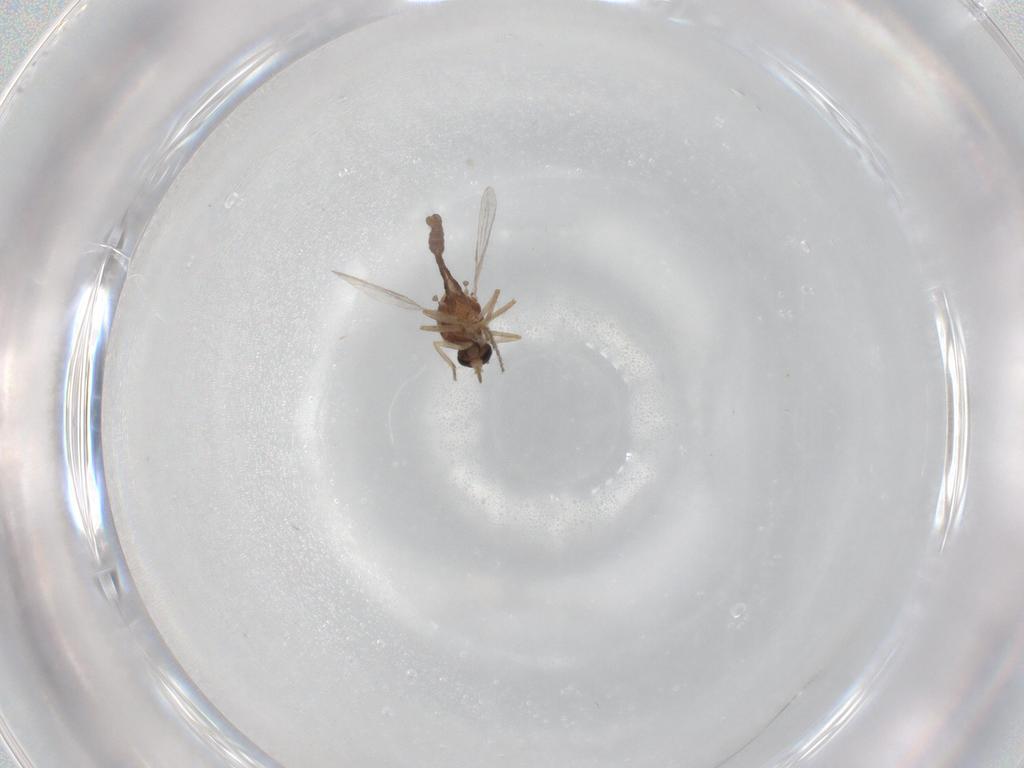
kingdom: Animalia
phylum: Arthropoda
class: Insecta
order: Diptera
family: Ceratopogonidae
